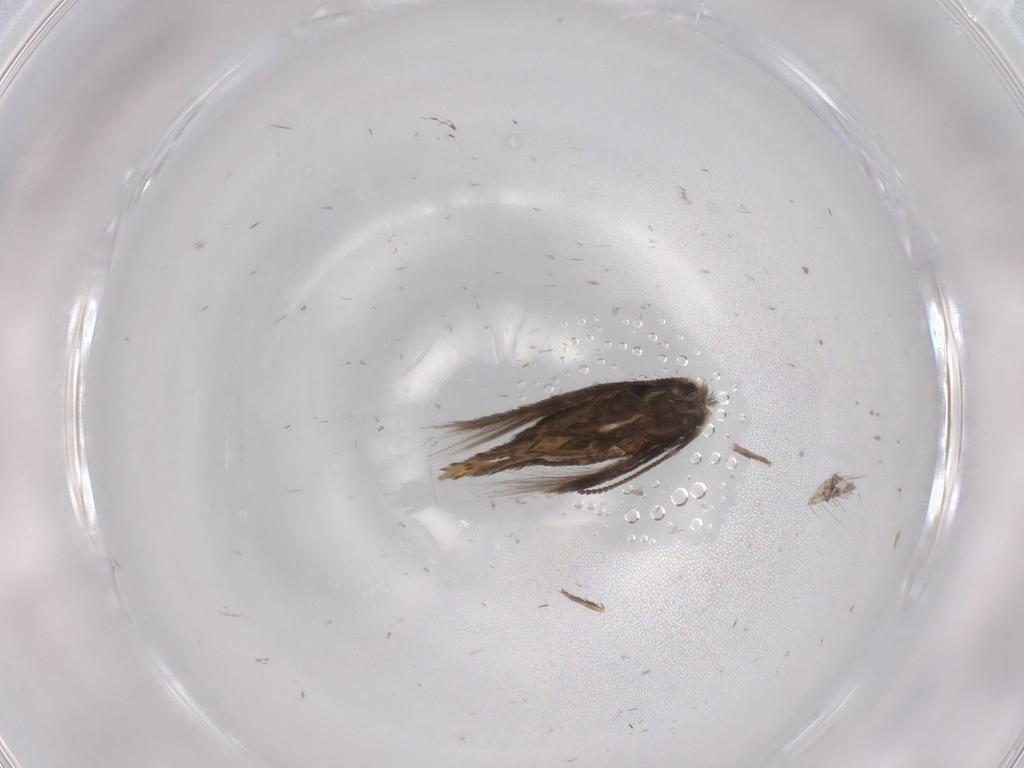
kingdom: Animalia
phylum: Arthropoda
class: Insecta
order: Lepidoptera
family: Nepticulidae
